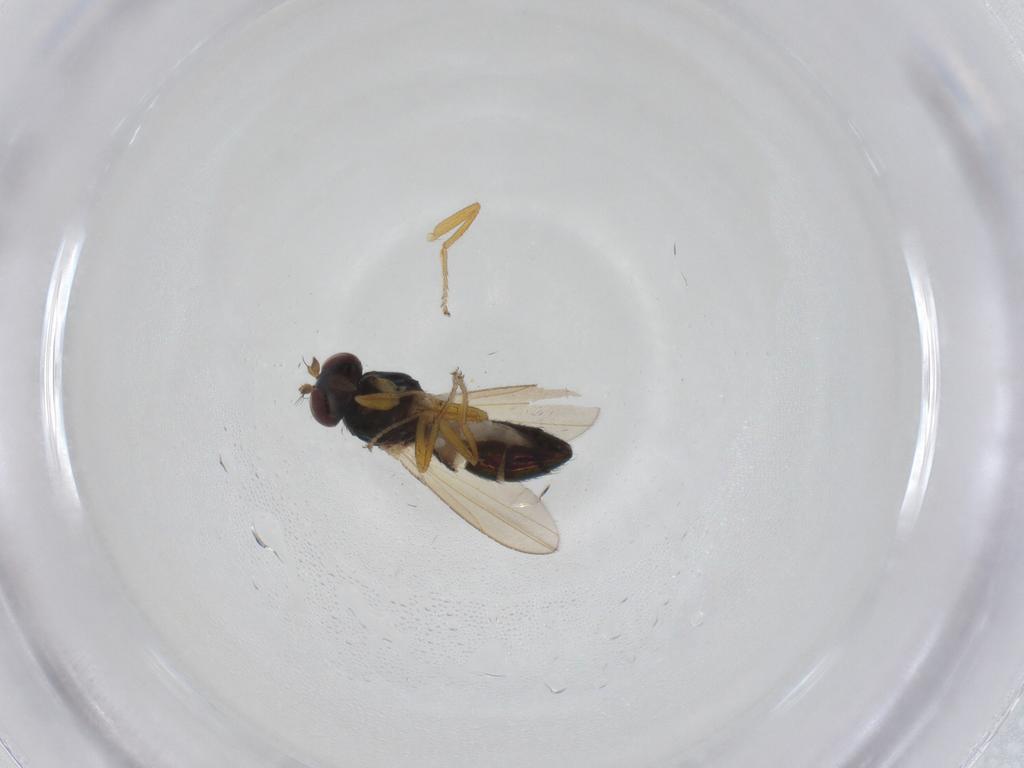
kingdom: Animalia
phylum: Arthropoda
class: Insecta
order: Diptera
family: Ephydridae
